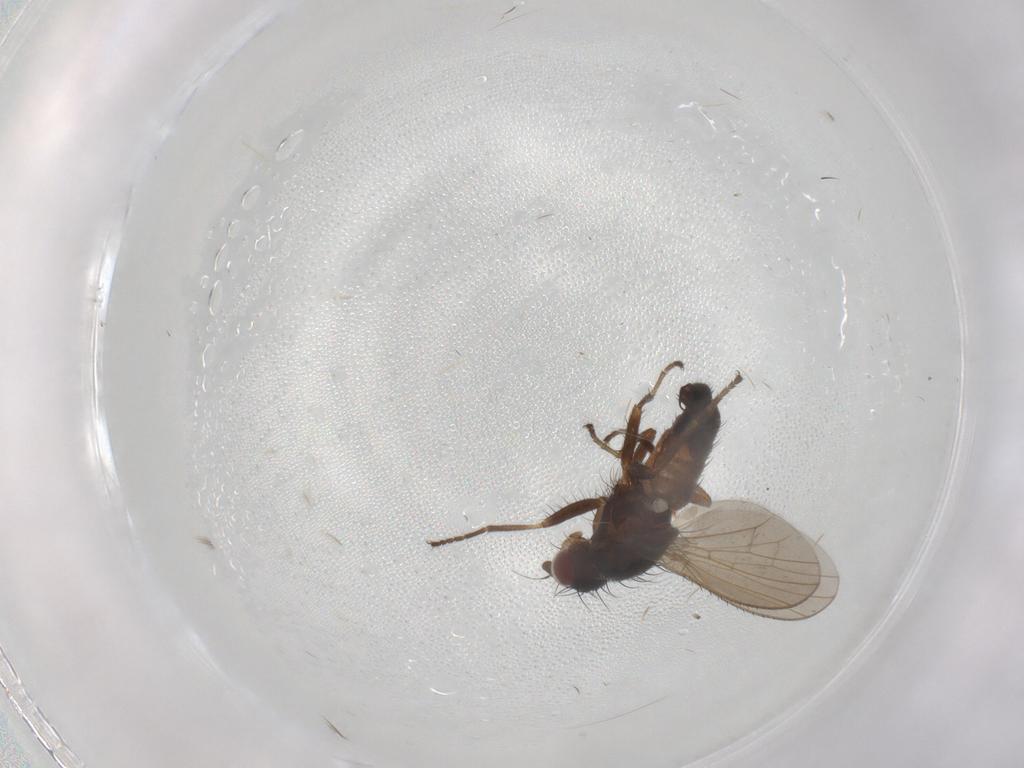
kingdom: Animalia
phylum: Arthropoda
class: Insecta
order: Diptera
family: Heleomyzidae
